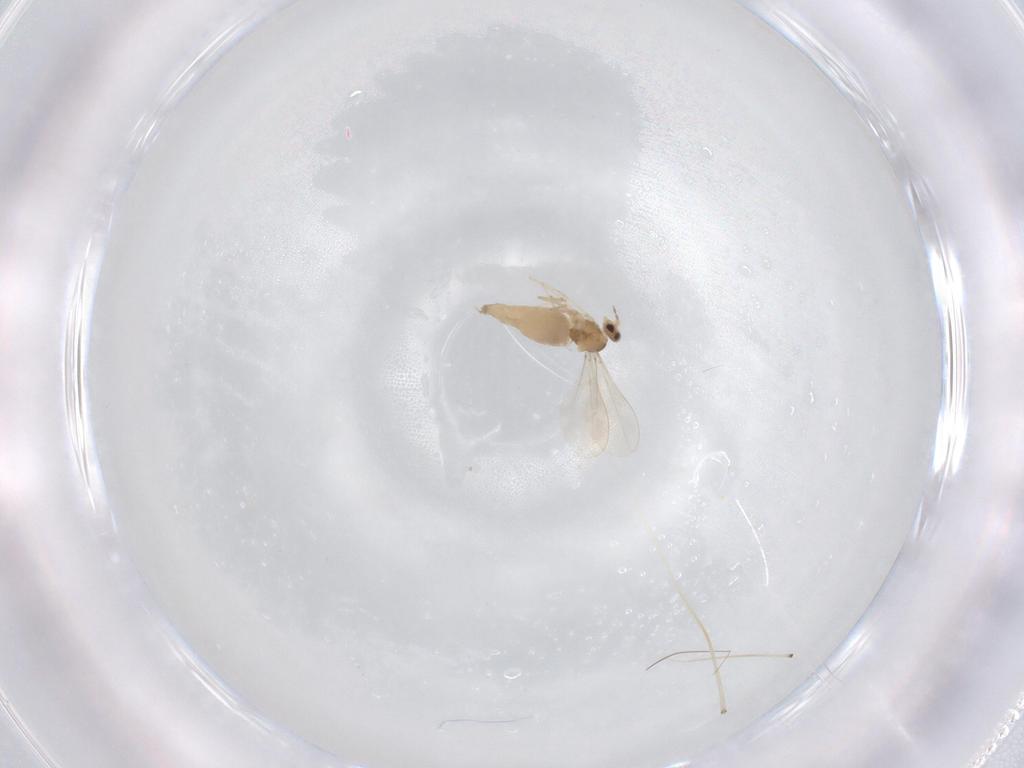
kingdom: Animalia
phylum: Arthropoda
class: Insecta
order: Diptera
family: Cecidomyiidae
